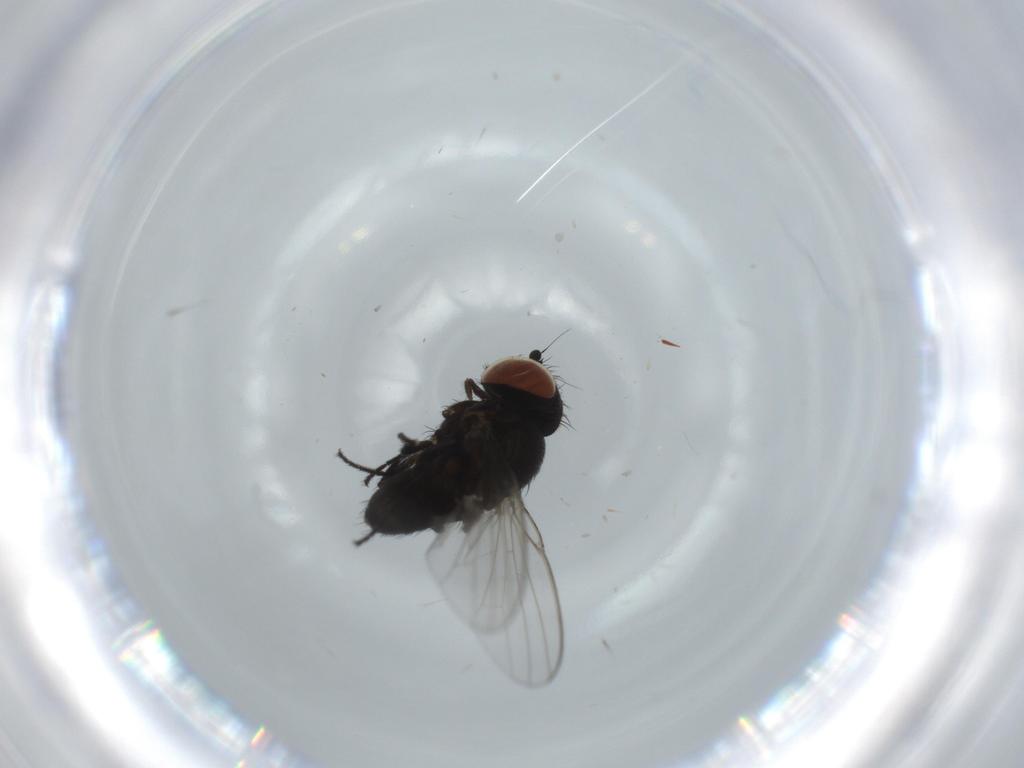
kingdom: Animalia
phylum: Arthropoda
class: Insecta
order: Diptera
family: Milichiidae
